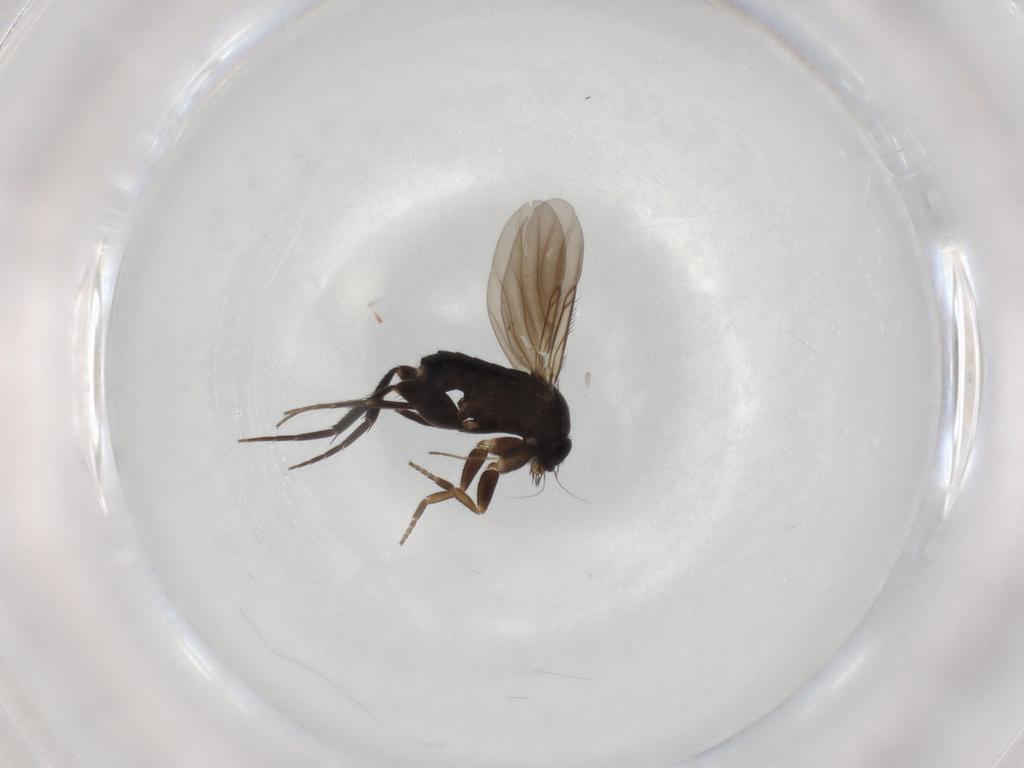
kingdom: Animalia
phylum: Arthropoda
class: Insecta
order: Diptera
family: Phoridae
